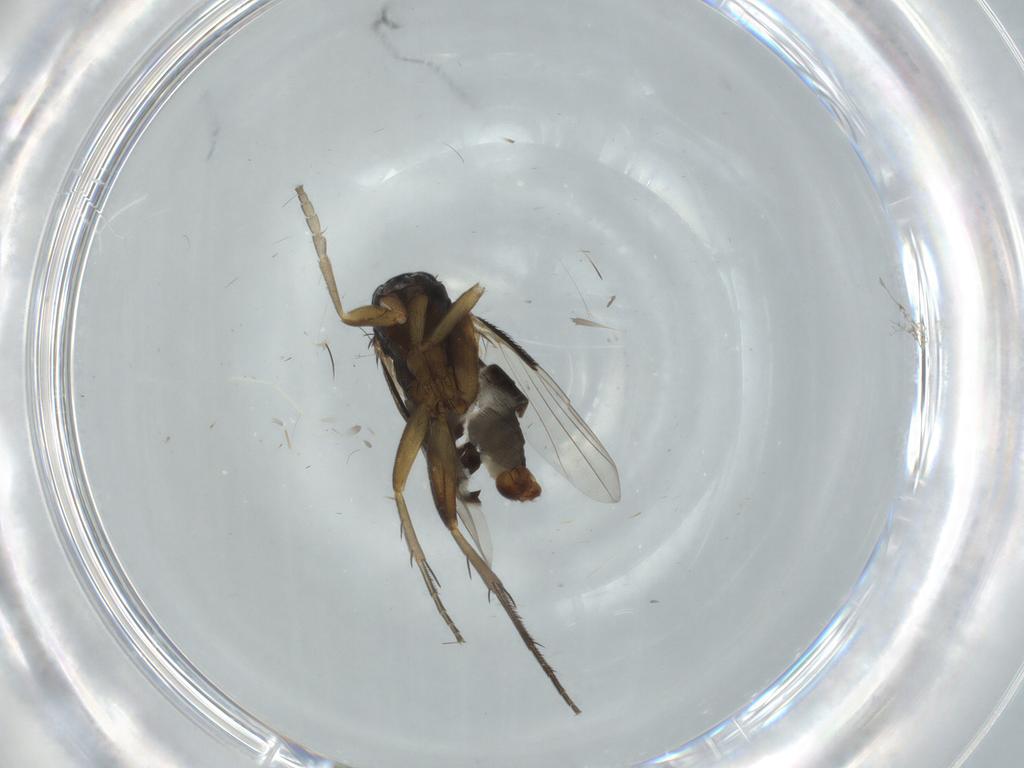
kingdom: Animalia
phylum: Arthropoda
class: Insecta
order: Diptera
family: Phoridae
